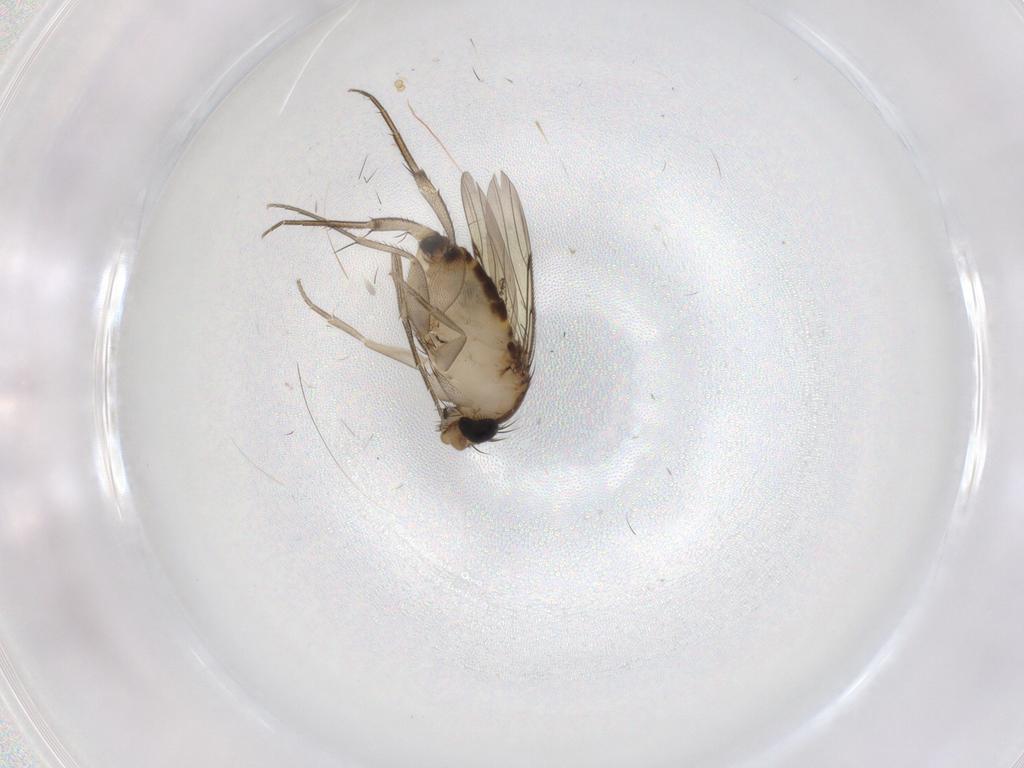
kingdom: Animalia
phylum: Arthropoda
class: Insecta
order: Diptera
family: Phoridae
